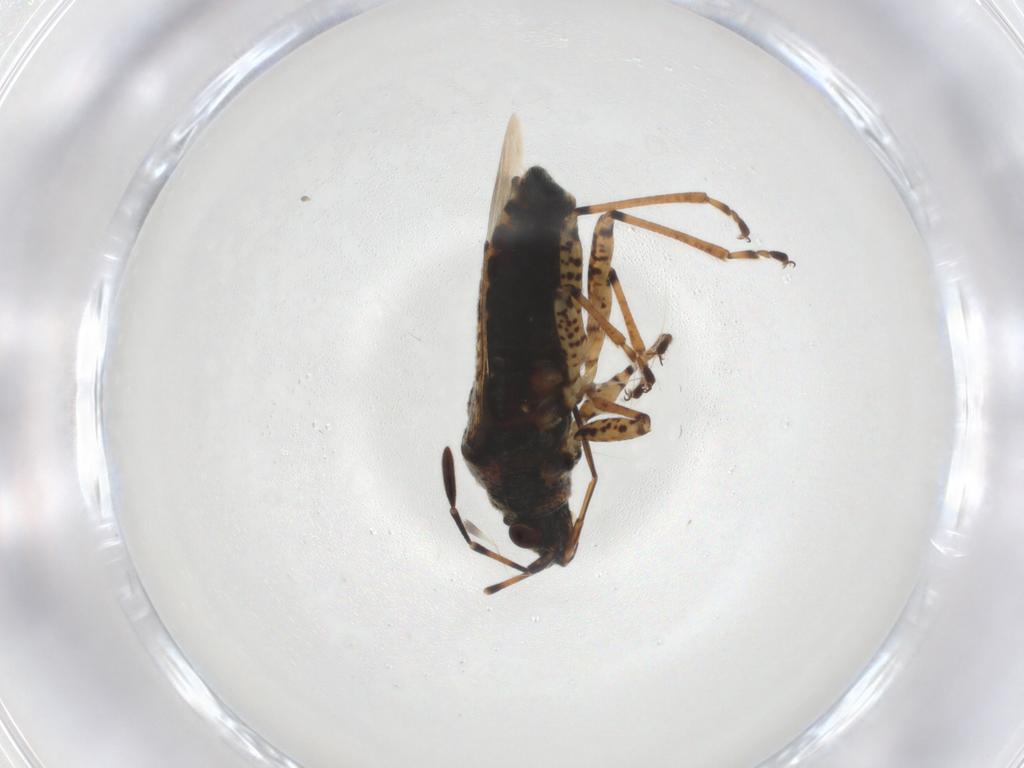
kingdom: Animalia
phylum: Arthropoda
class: Insecta
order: Hemiptera
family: Lygaeidae
